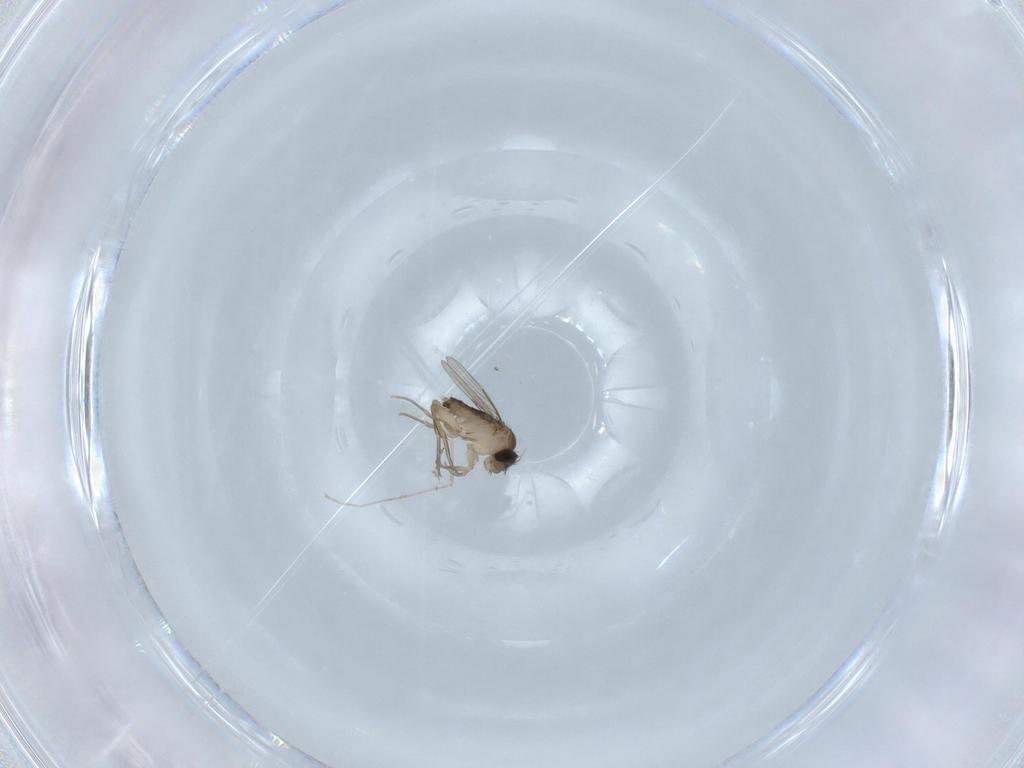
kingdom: Animalia
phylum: Arthropoda
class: Insecta
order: Diptera
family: Cecidomyiidae
